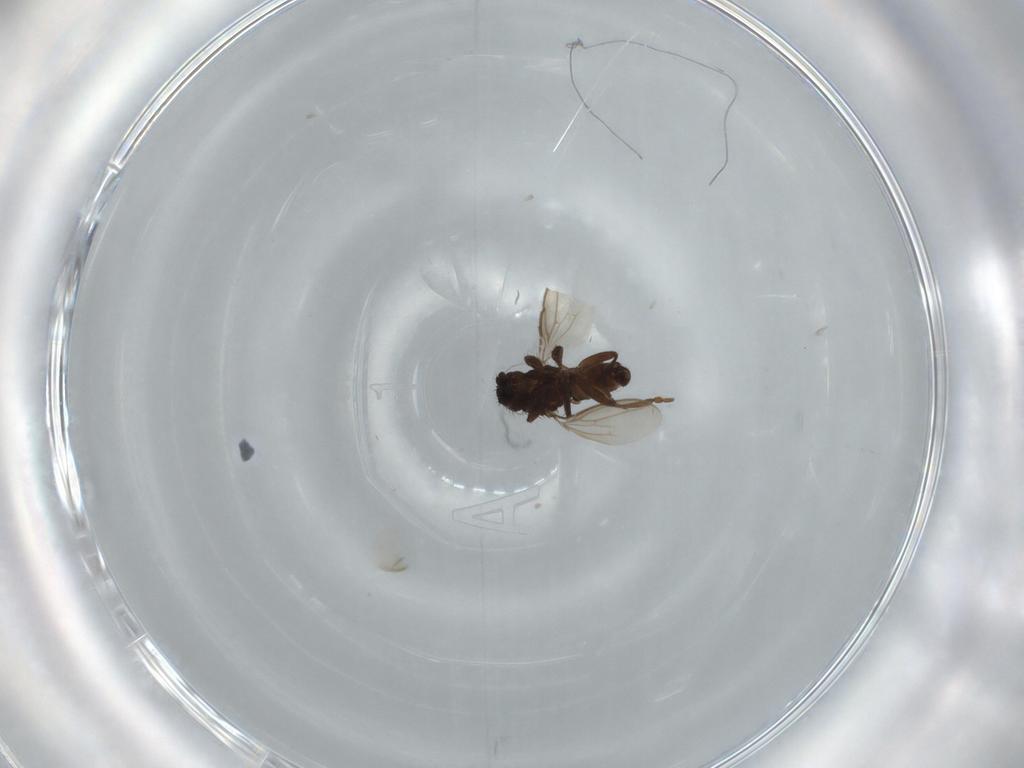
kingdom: Animalia
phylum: Arthropoda
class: Insecta
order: Diptera
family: Sphaeroceridae
